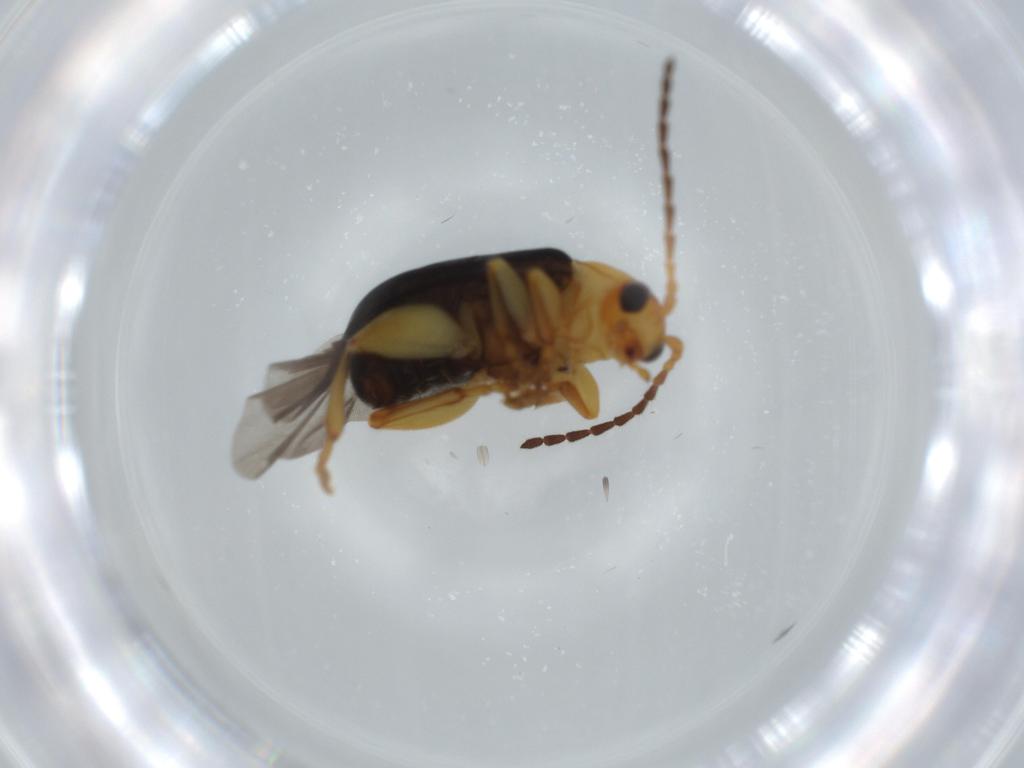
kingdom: Animalia
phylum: Arthropoda
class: Insecta
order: Coleoptera
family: Chrysomelidae
